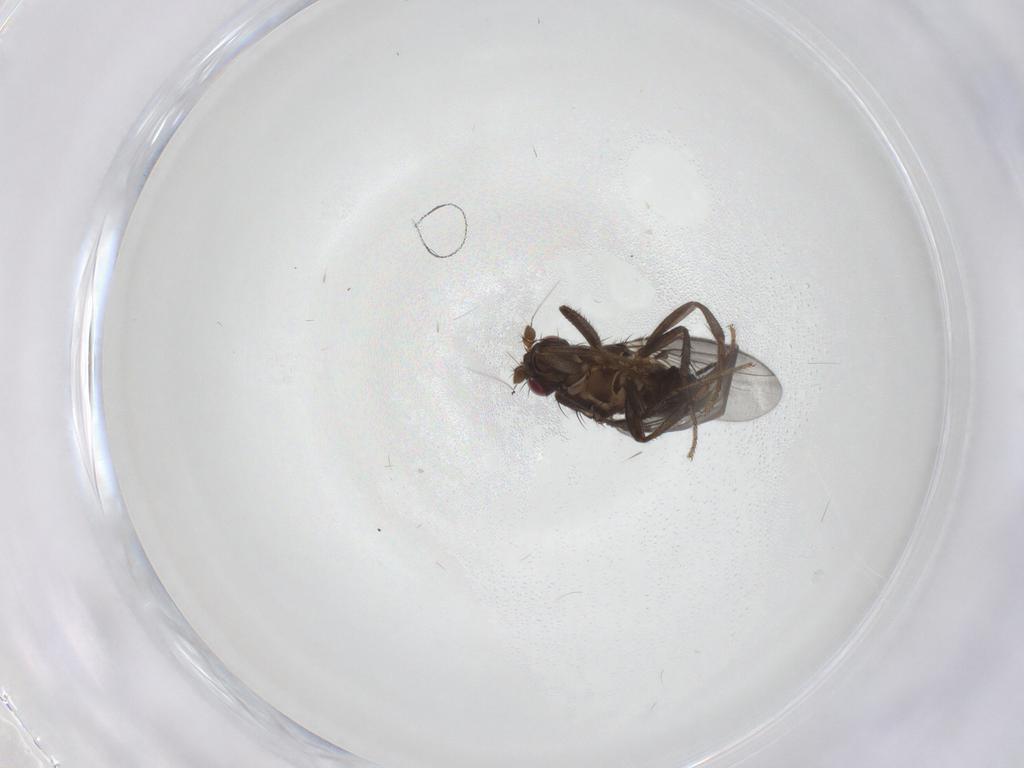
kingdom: Animalia
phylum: Arthropoda
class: Insecta
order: Diptera
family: Sphaeroceridae
